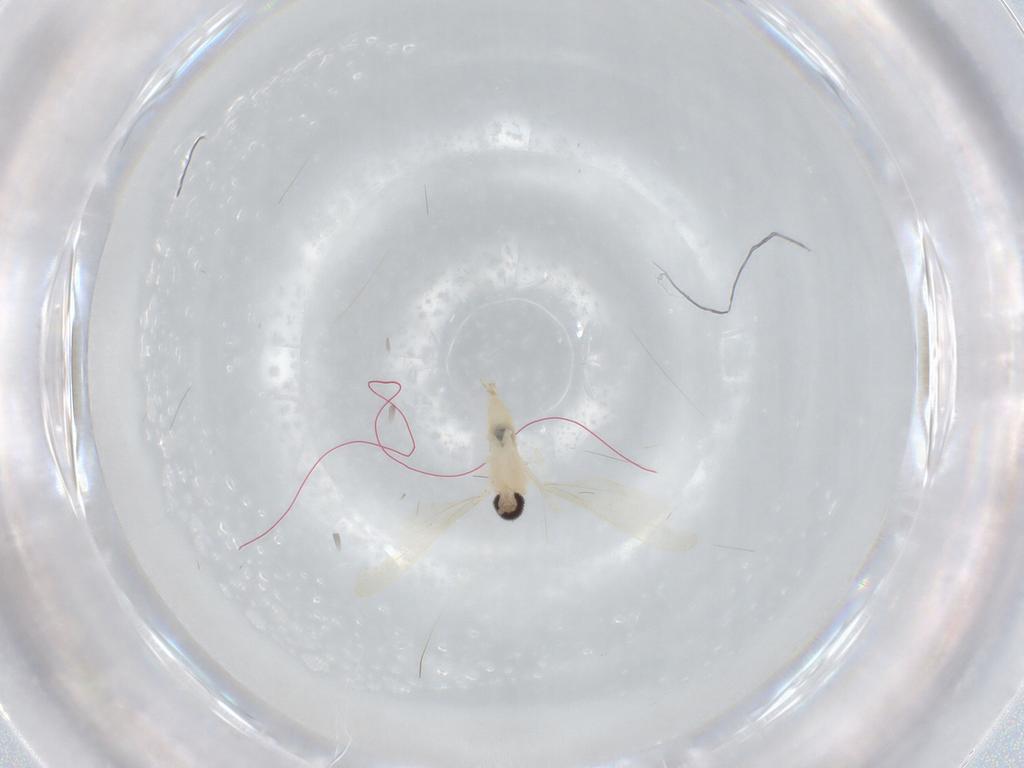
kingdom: Animalia
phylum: Arthropoda
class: Insecta
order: Diptera
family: Cecidomyiidae
